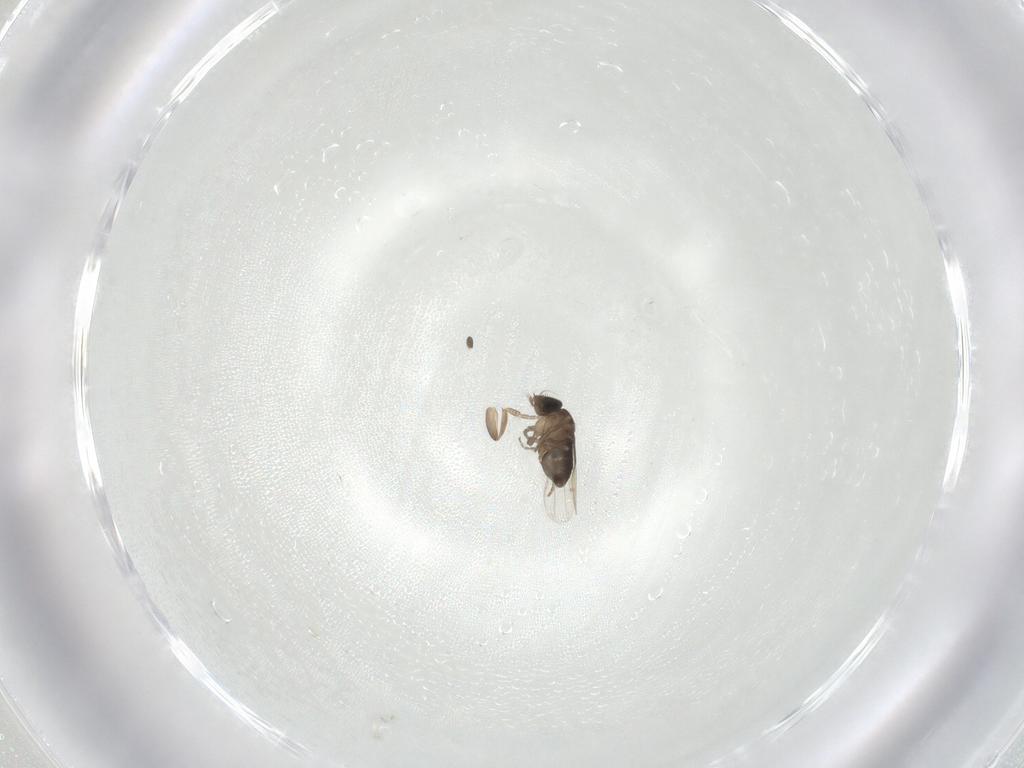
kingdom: Animalia
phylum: Arthropoda
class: Insecta
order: Diptera
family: Phoridae
